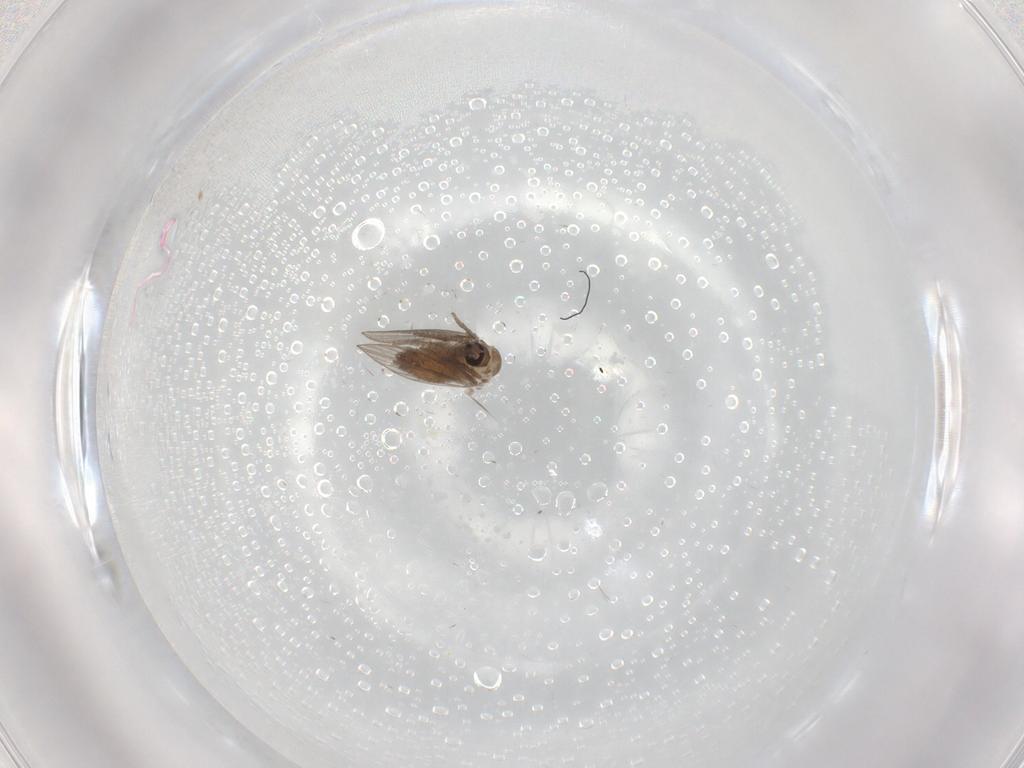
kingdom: Animalia
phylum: Arthropoda
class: Insecta
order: Diptera
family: Psychodidae
